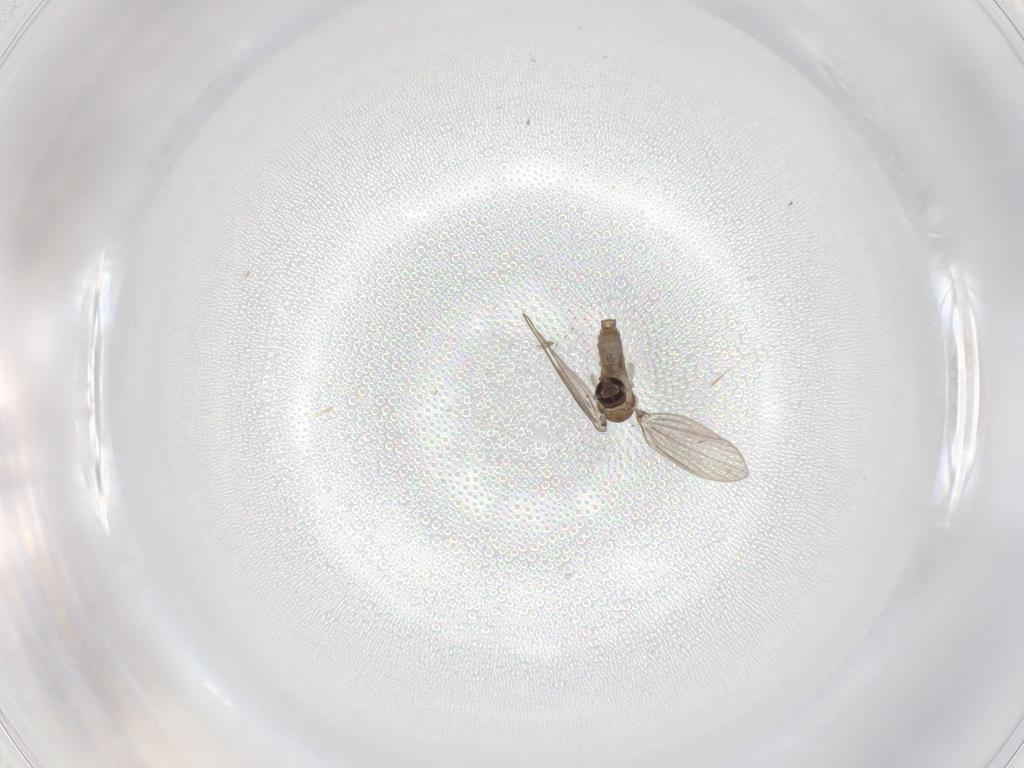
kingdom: Animalia
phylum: Arthropoda
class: Insecta
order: Diptera
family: Psychodidae
